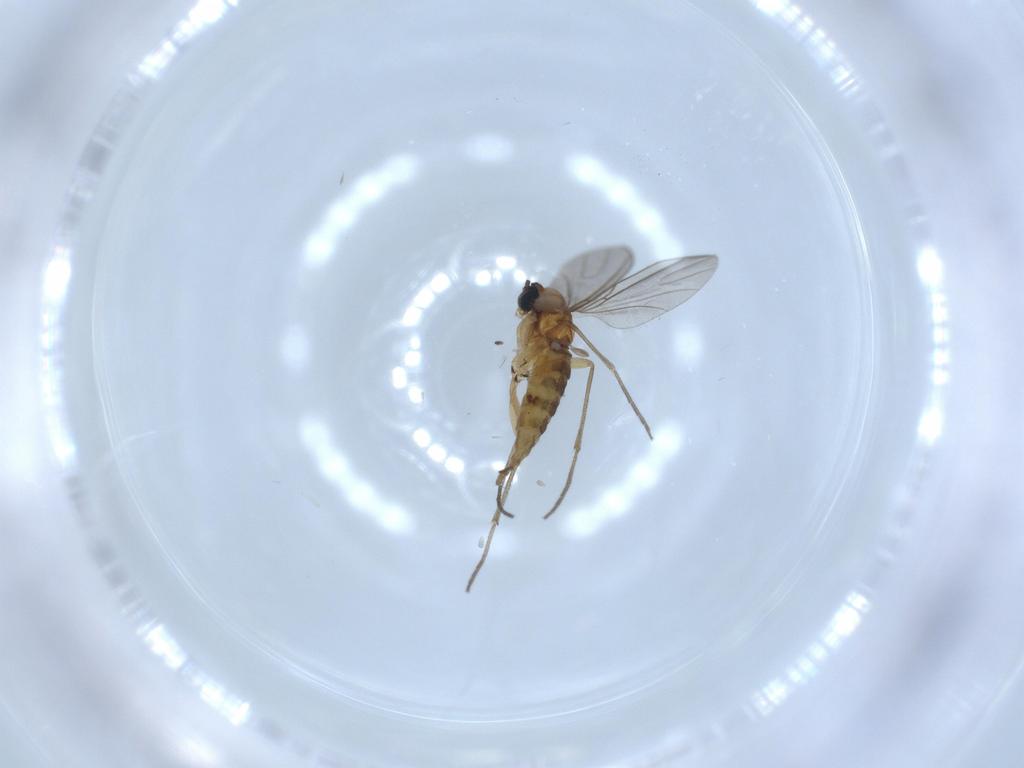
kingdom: Animalia
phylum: Arthropoda
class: Insecta
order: Diptera
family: Sciaridae
